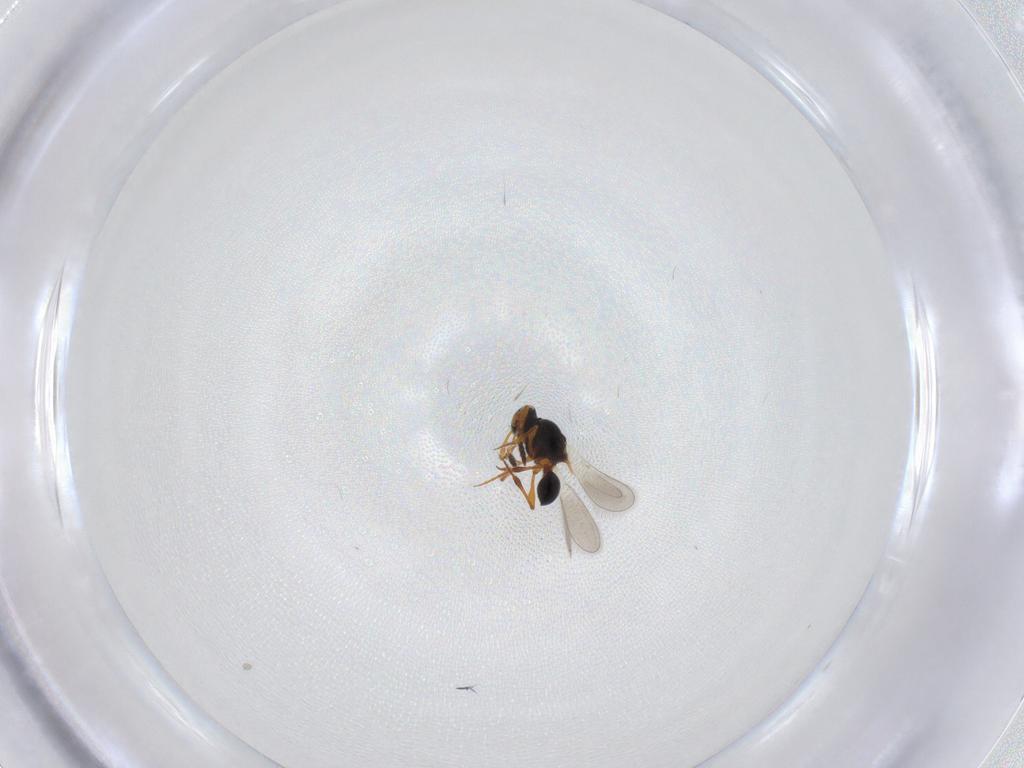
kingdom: Animalia
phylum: Arthropoda
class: Insecta
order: Hymenoptera
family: Platygastridae
